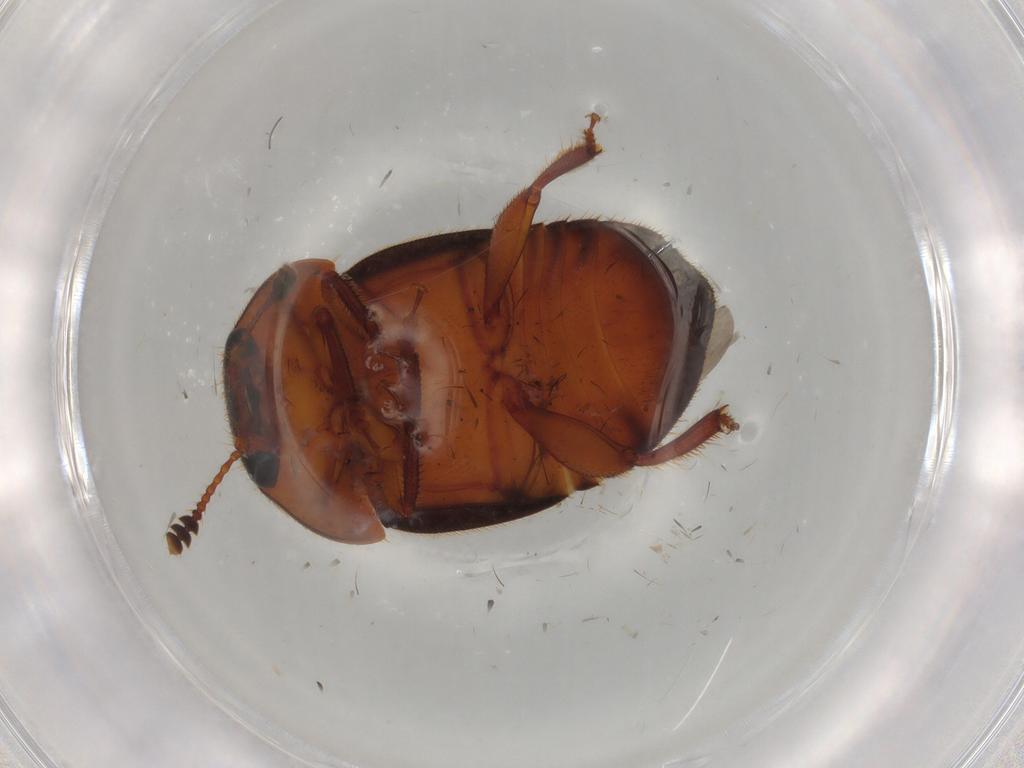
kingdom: Animalia
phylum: Arthropoda
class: Insecta
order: Coleoptera
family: Nitidulidae
